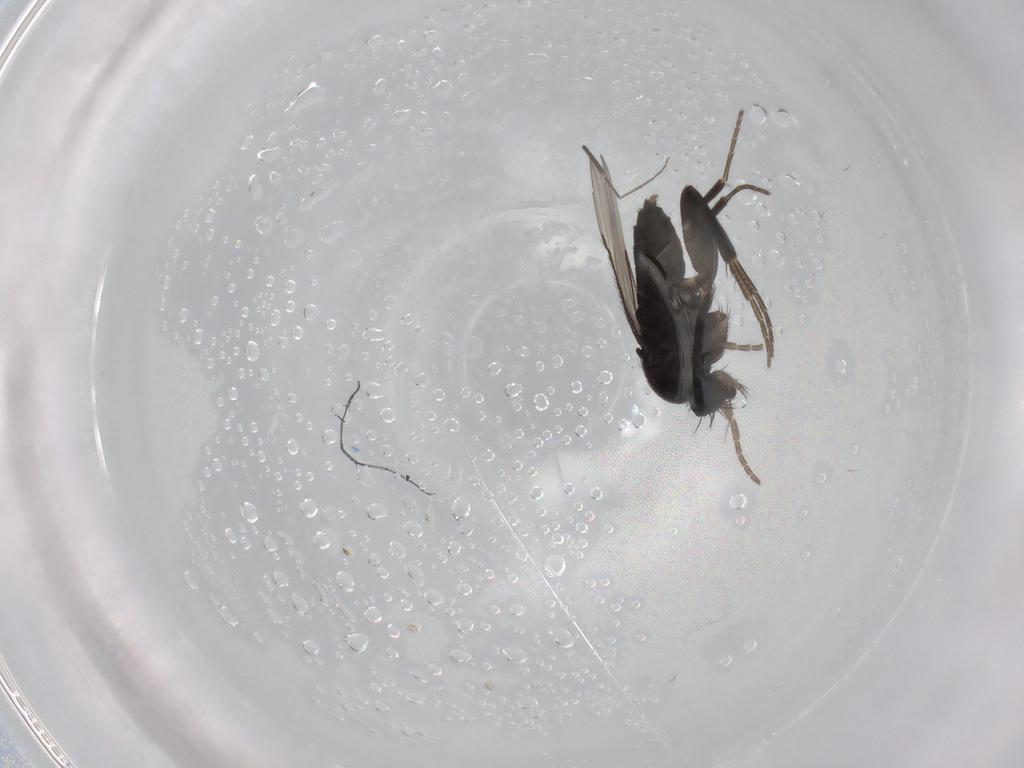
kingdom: Animalia
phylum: Arthropoda
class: Insecta
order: Diptera
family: Phoridae
